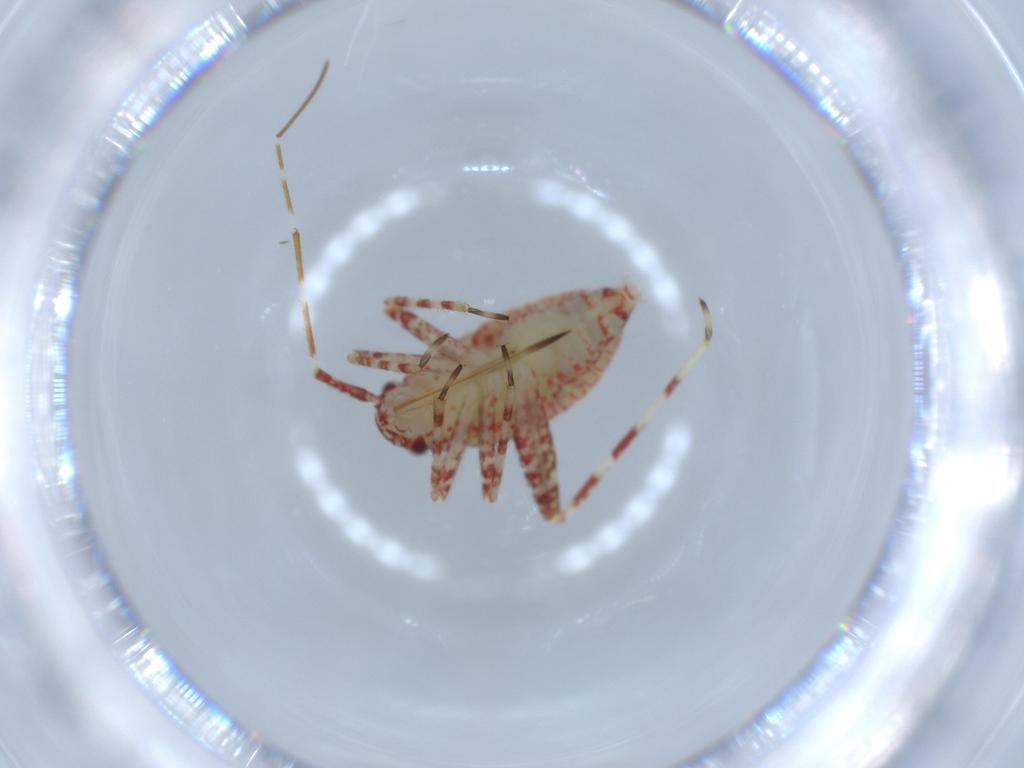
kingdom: Animalia
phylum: Arthropoda
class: Insecta
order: Hemiptera
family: Miridae
